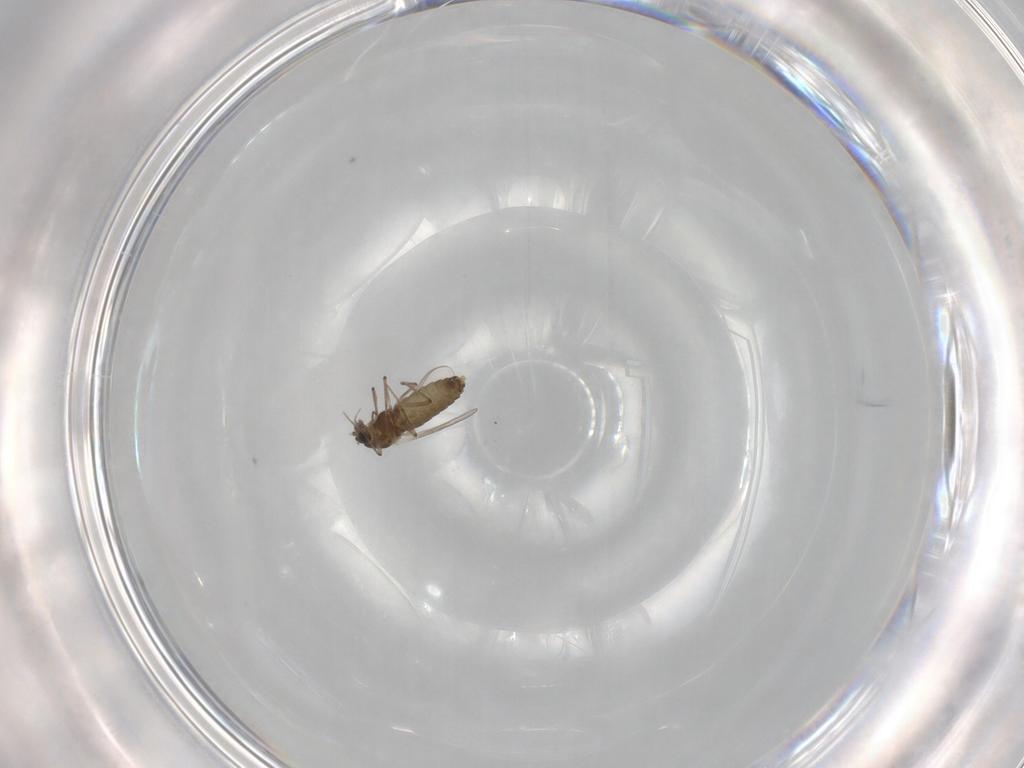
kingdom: Animalia
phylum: Arthropoda
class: Insecta
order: Diptera
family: Chironomidae
